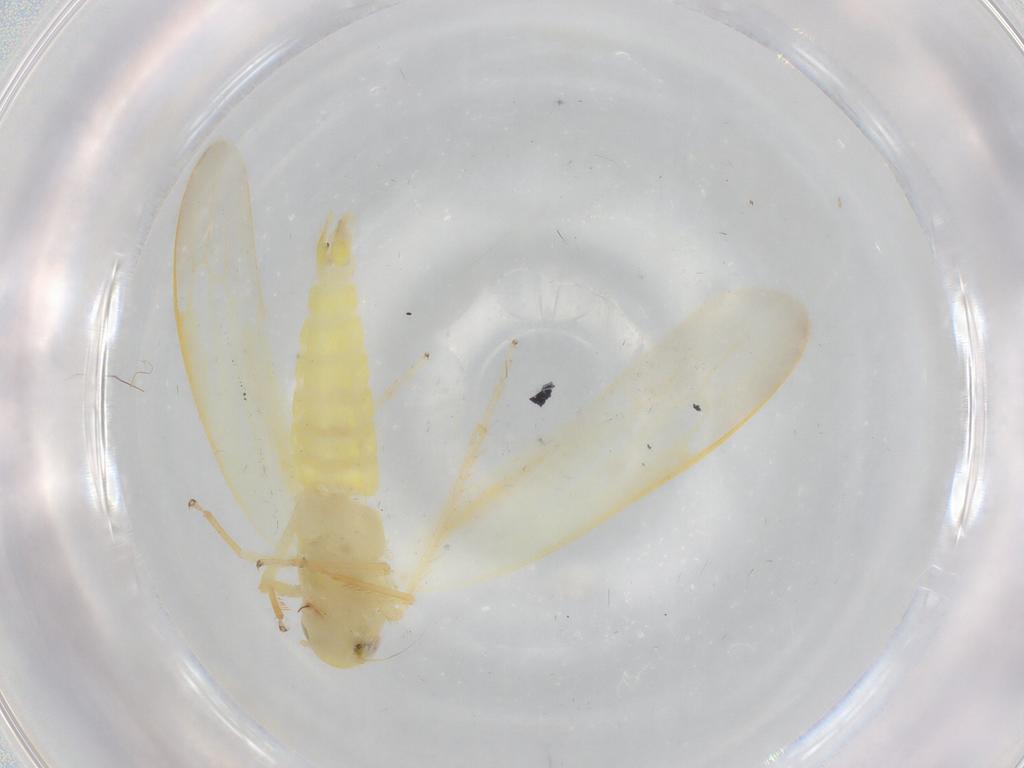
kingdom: Animalia
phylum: Arthropoda
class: Insecta
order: Hemiptera
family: Cicadellidae
